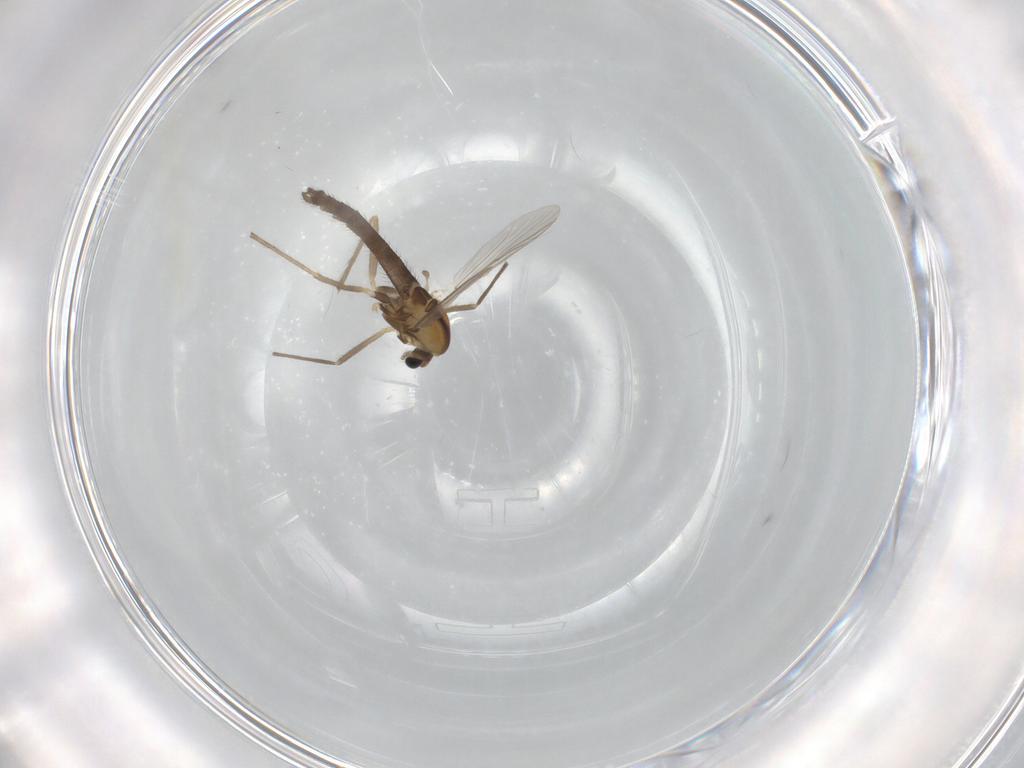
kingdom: Animalia
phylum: Arthropoda
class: Insecta
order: Diptera
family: Chironomidae
